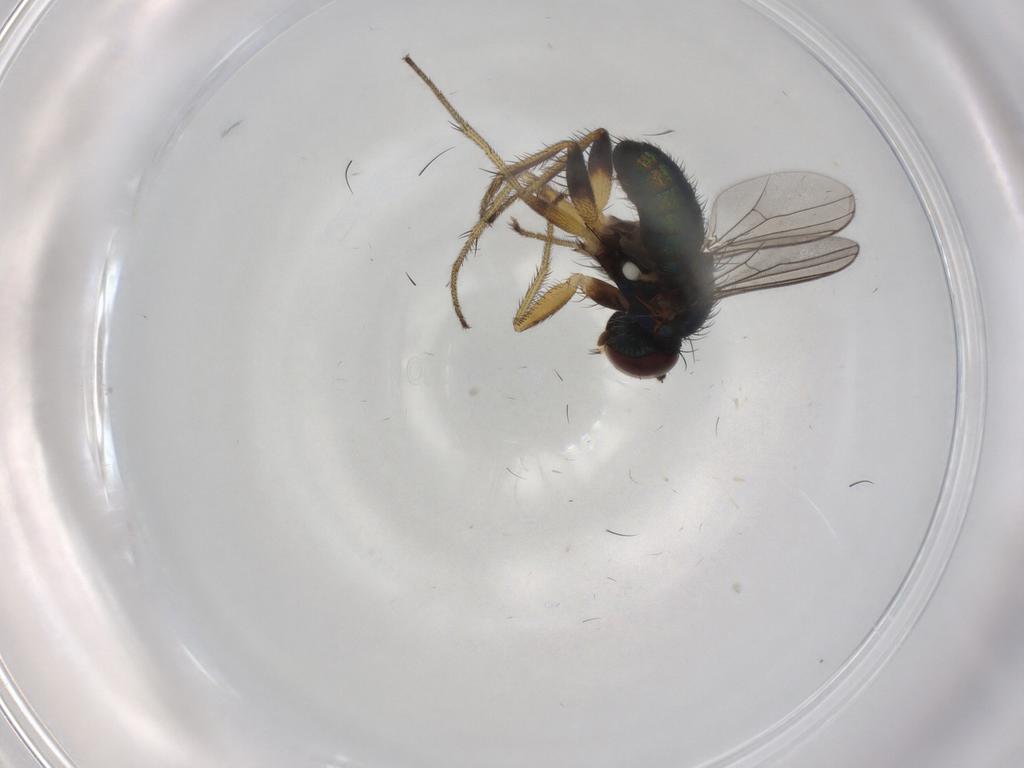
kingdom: Animalia
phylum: Arthropoda
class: Insecta
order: Diptera
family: Dolichopodidae
